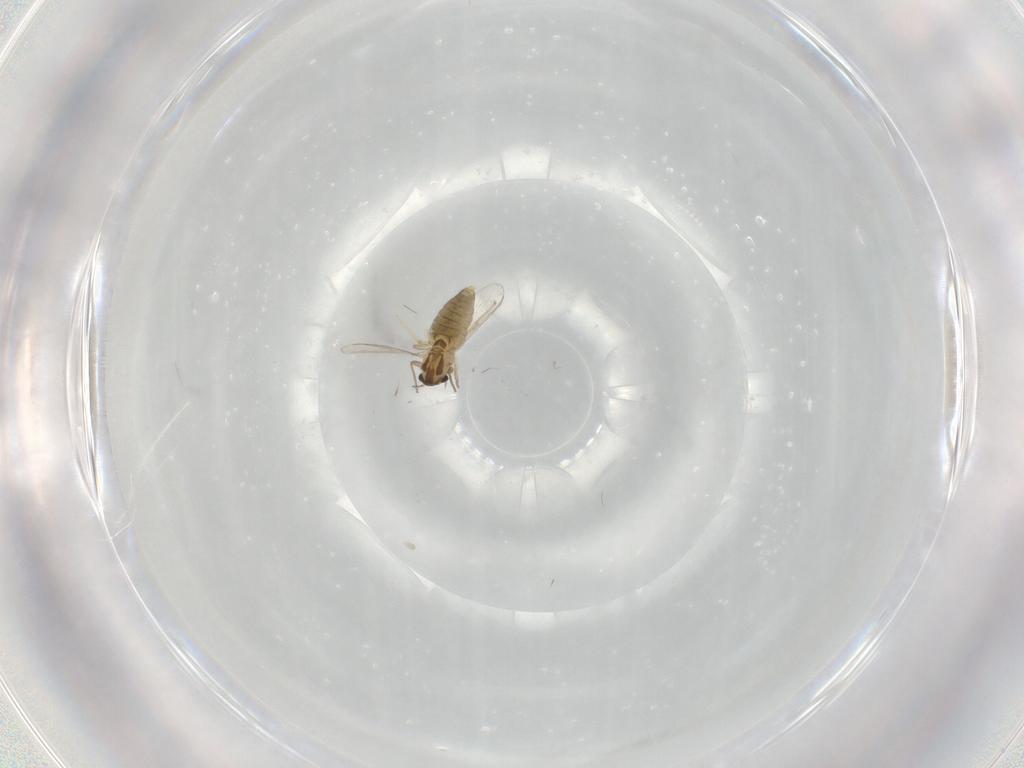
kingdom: Animalia
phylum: Arthropoda
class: Insecta
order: Diptera
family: Chironomidae
